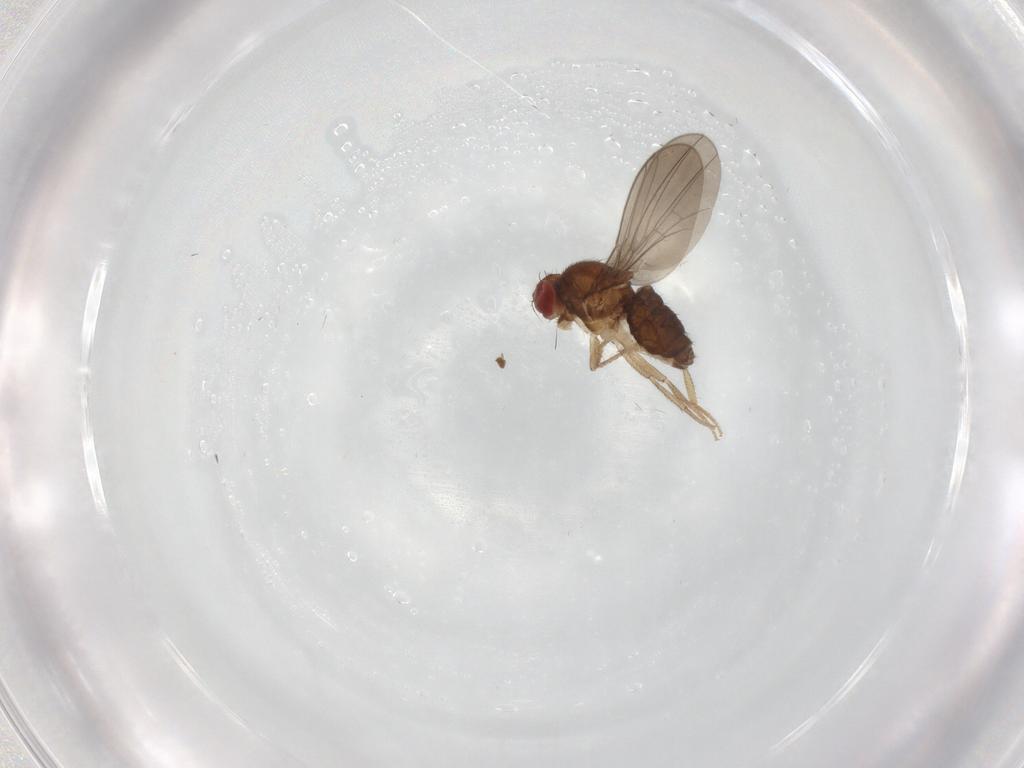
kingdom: Animalia
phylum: Arthropoda
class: Insecta
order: Diptera
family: Drosophilidae
